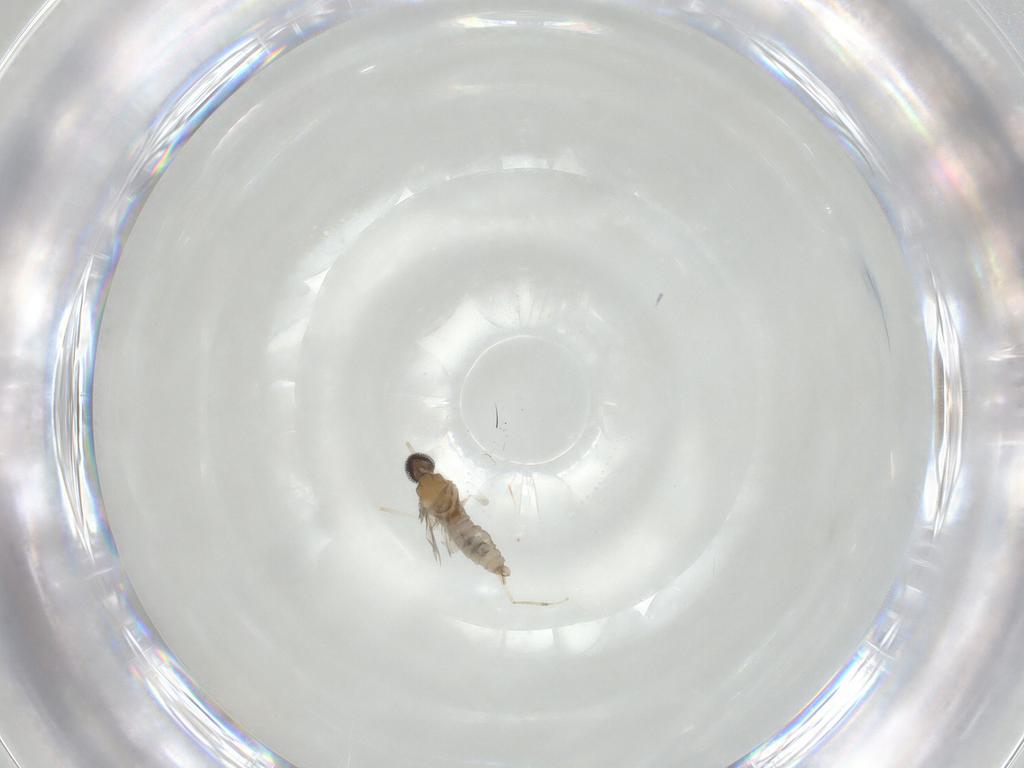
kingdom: Animalia
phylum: Arthropoda
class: Insecta
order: Diptera
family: Cecidomyiidae
